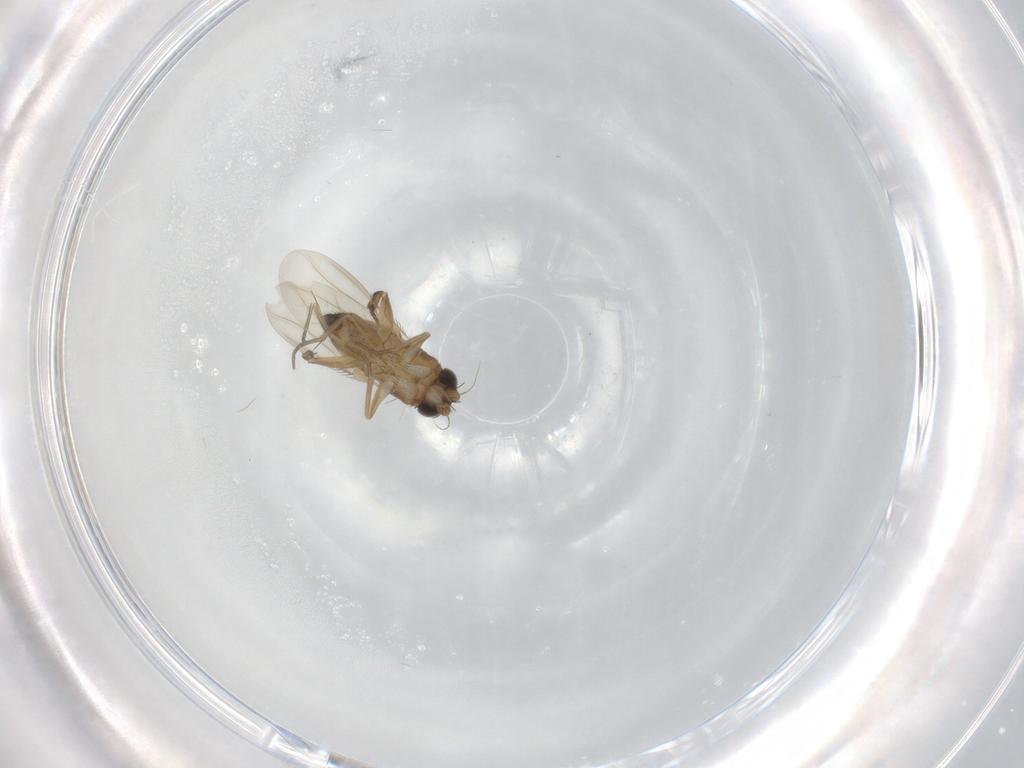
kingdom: Animalia
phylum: Arthropoda
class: Insecta
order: Diptera
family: Phoridae
